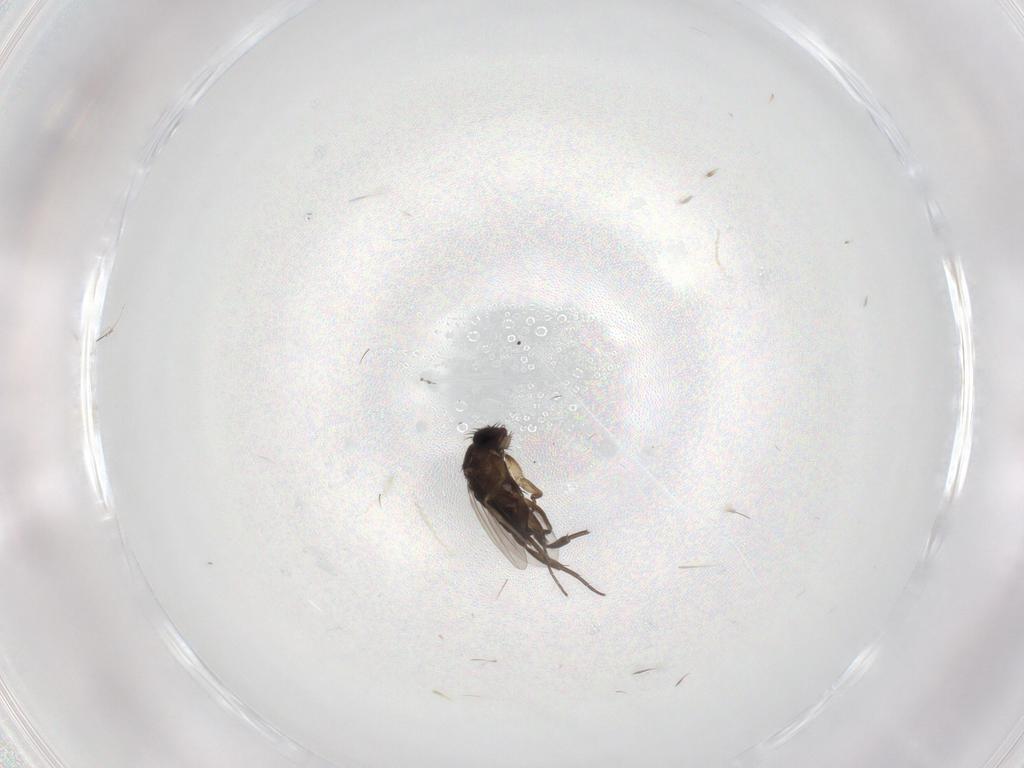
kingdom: Animalia
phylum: Arthropoda
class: Insecta
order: Diptera
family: Phoridae
